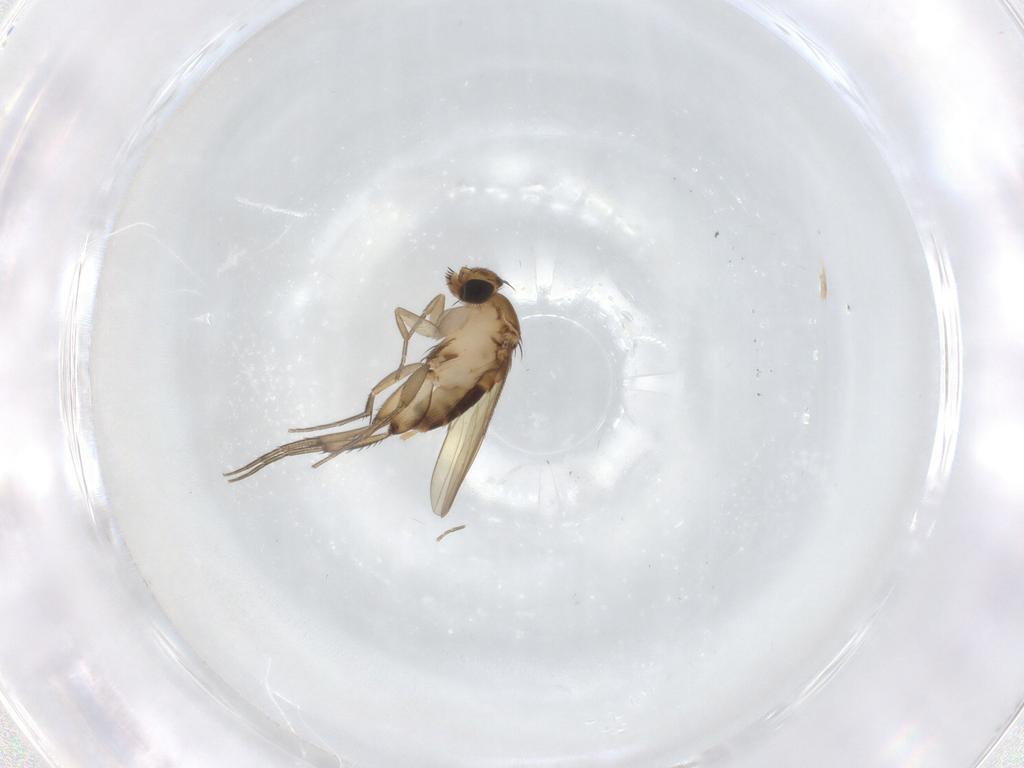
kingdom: Animalia
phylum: Arthropoda
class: Insecta
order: Diptera
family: Phoridae
